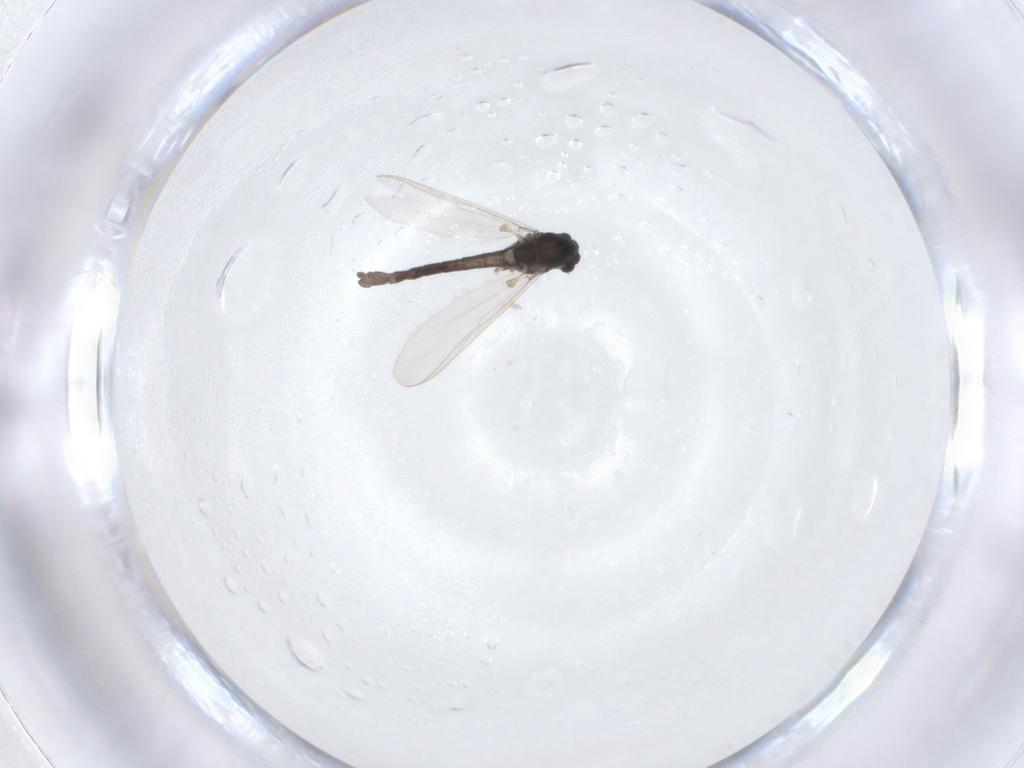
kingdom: Animalia
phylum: Arthropoda
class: Insecta
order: Diptera
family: Chironomidae
